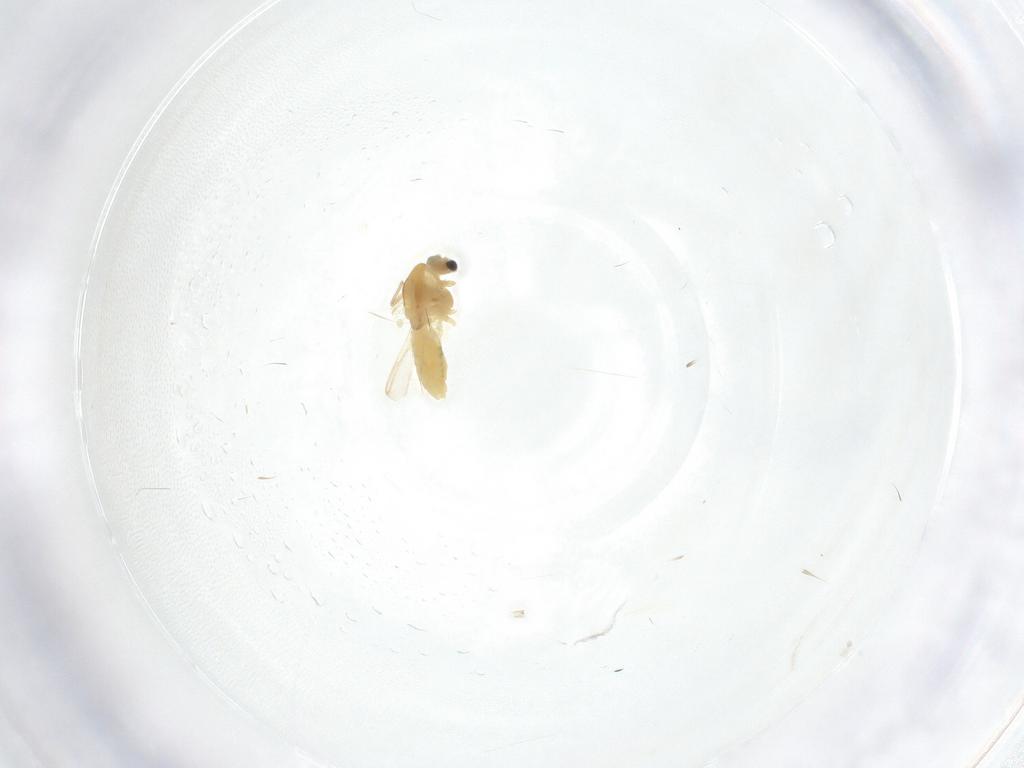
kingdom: Animalia
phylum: Arthropoda
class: Insecta
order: Diptera
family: Chironomidae
